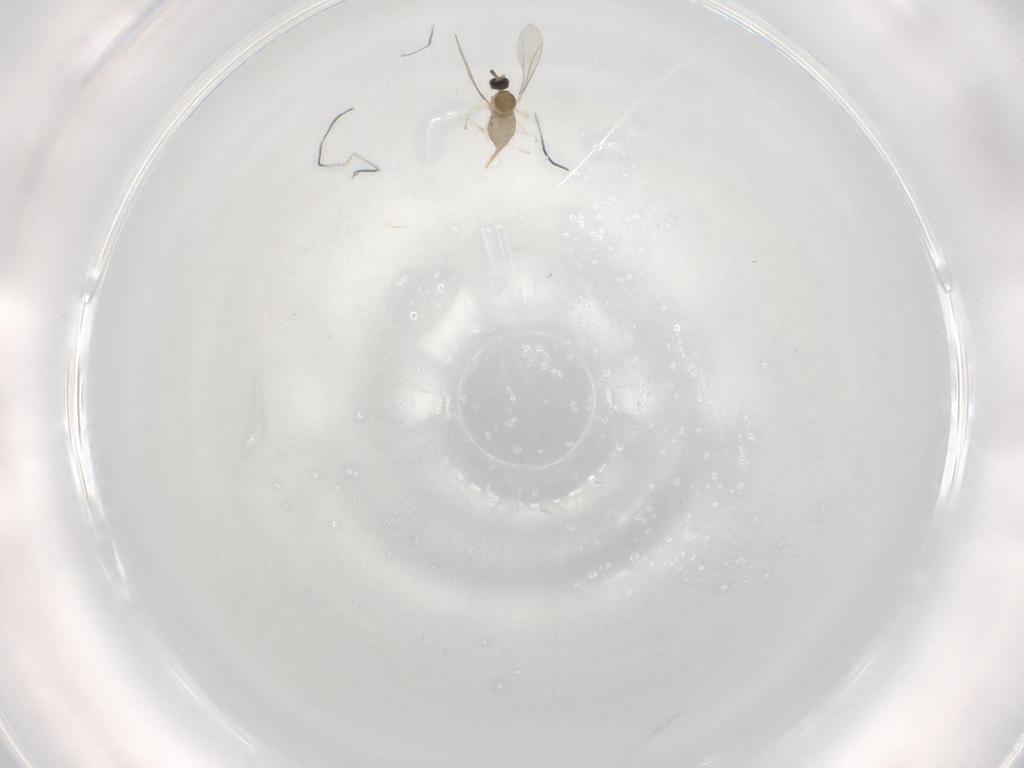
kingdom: Animalia
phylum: Arthropoda
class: Insecta
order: Diptera
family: Cecidomyiidae
